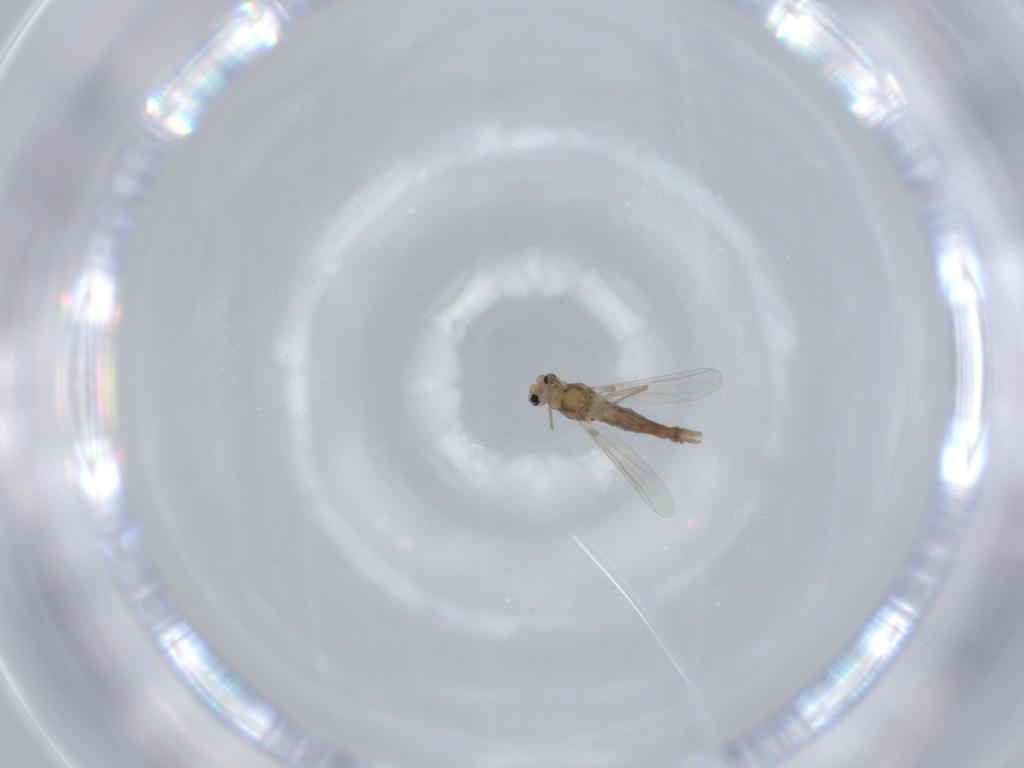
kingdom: Animalia
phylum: Arthropoda
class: Insecta
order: Diptera
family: Chironomidae
